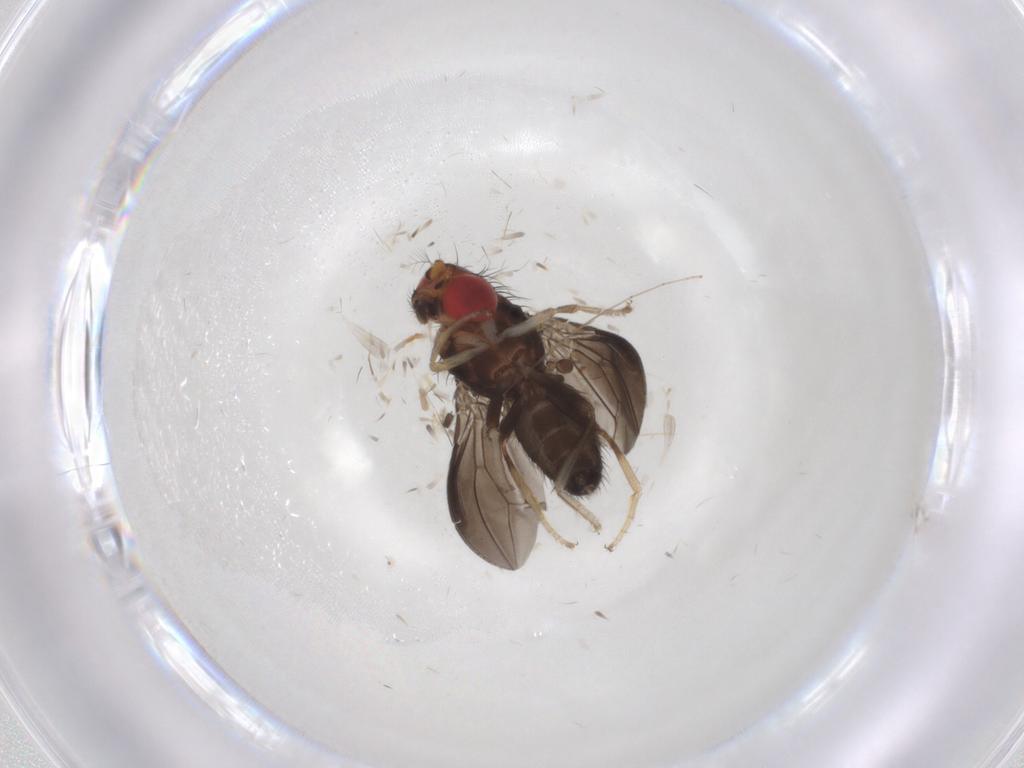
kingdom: Animalia
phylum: Arthropoda
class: Insecta
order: Diptera
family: Drosophilidae
